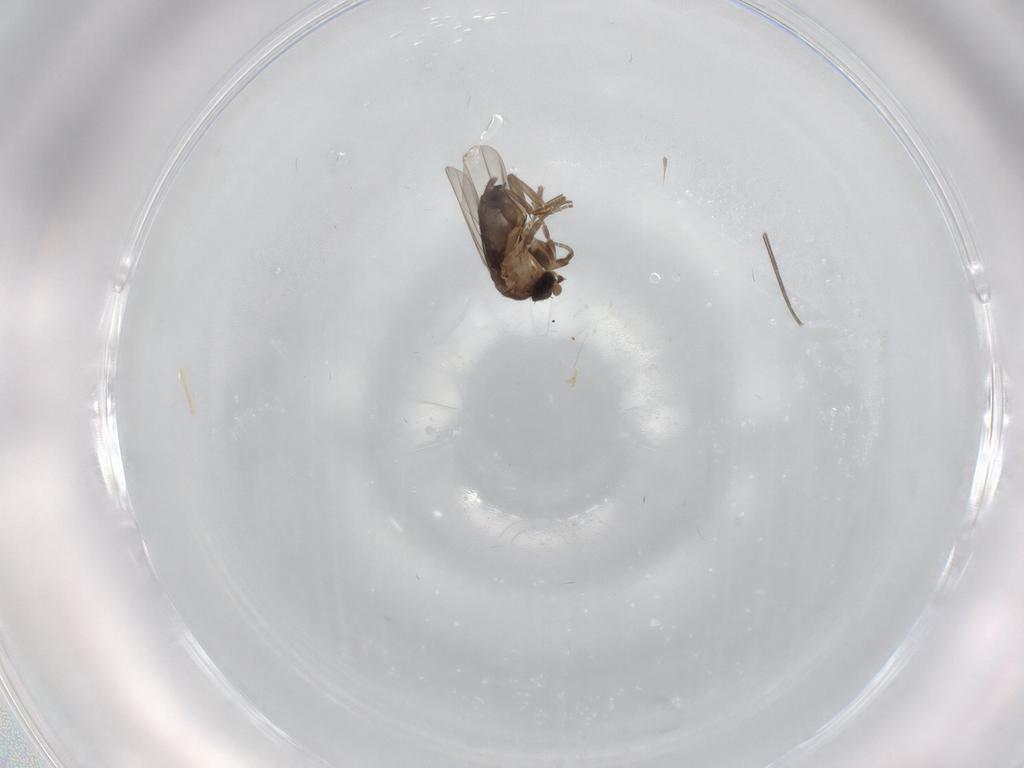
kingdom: Animalia
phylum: Arthropoda
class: Insecta
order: Diptera
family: Phoridae
